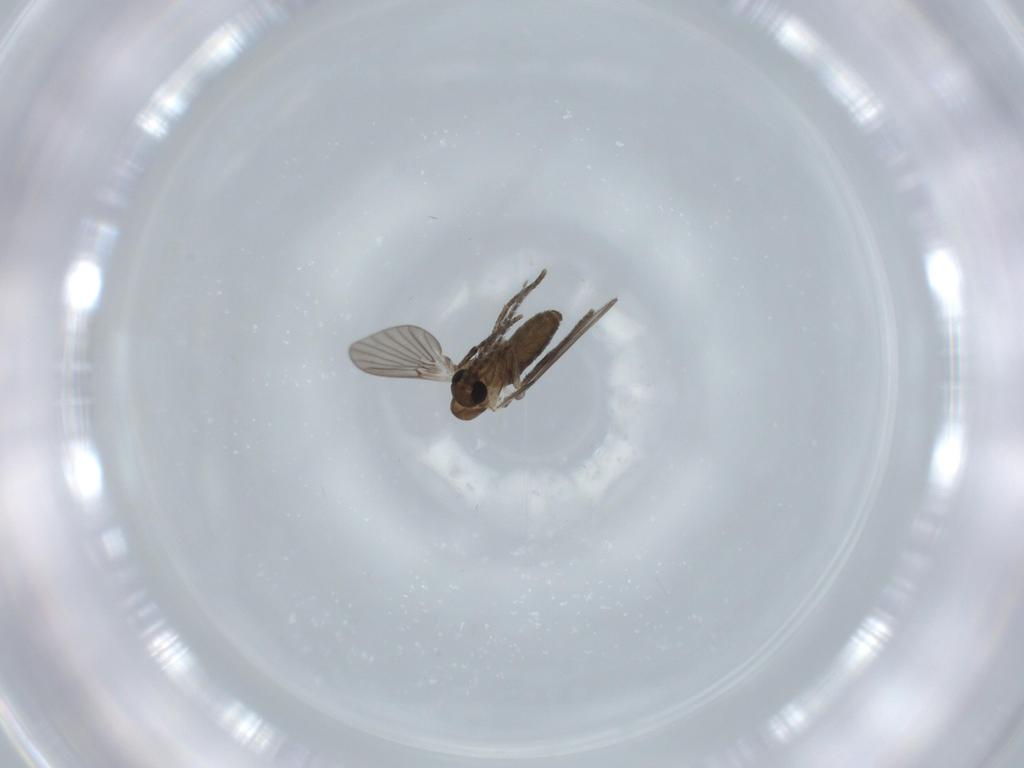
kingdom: Animalia
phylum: Arthropoda
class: Insecta
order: Diptera
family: Psychodidae
